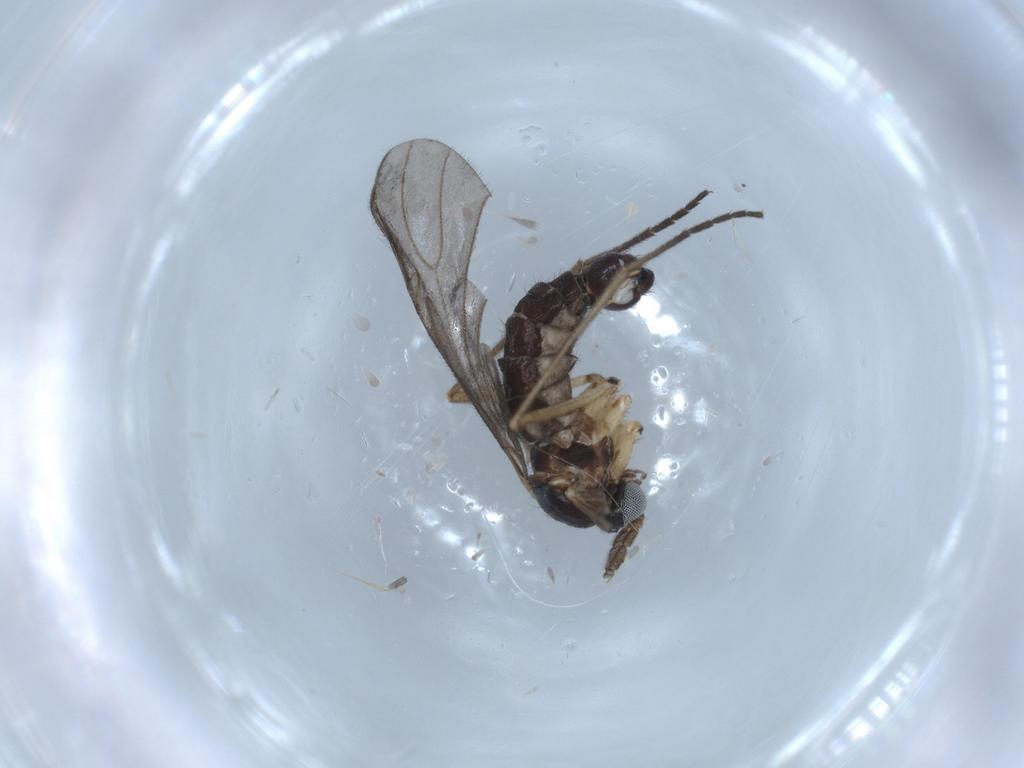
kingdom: Animalia
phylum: Arthropoda
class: Insecta
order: Diptera
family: Sciaridae
